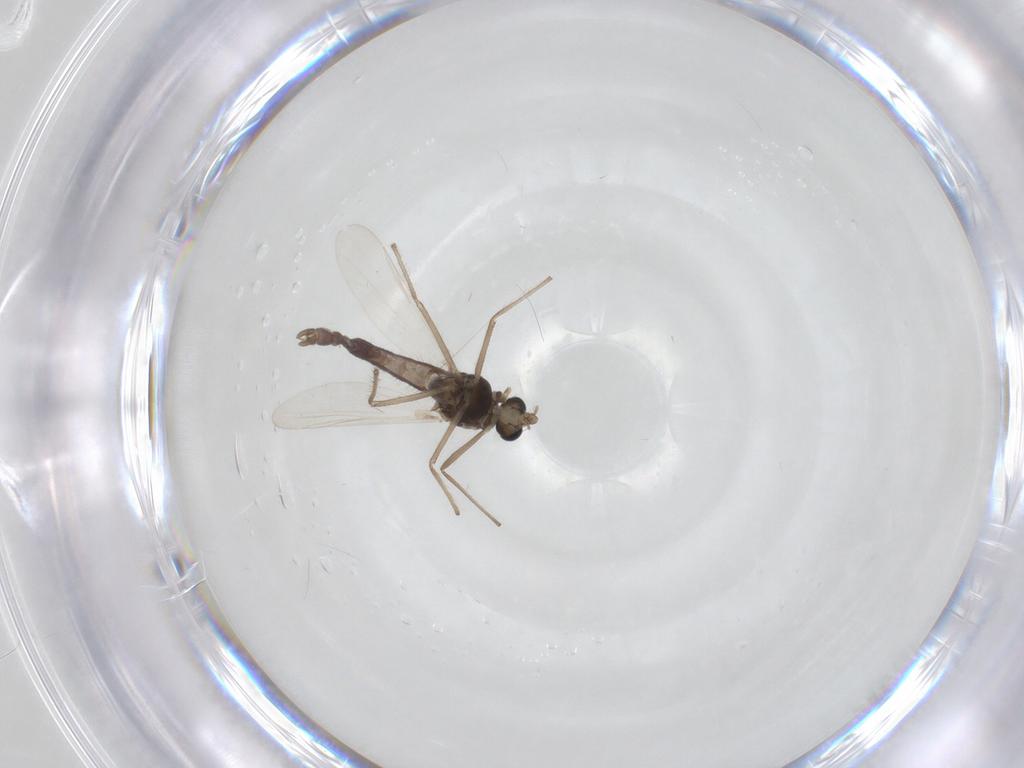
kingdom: Animalia
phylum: Arthropoda
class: Insecta
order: Diptera
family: Chironomidae
